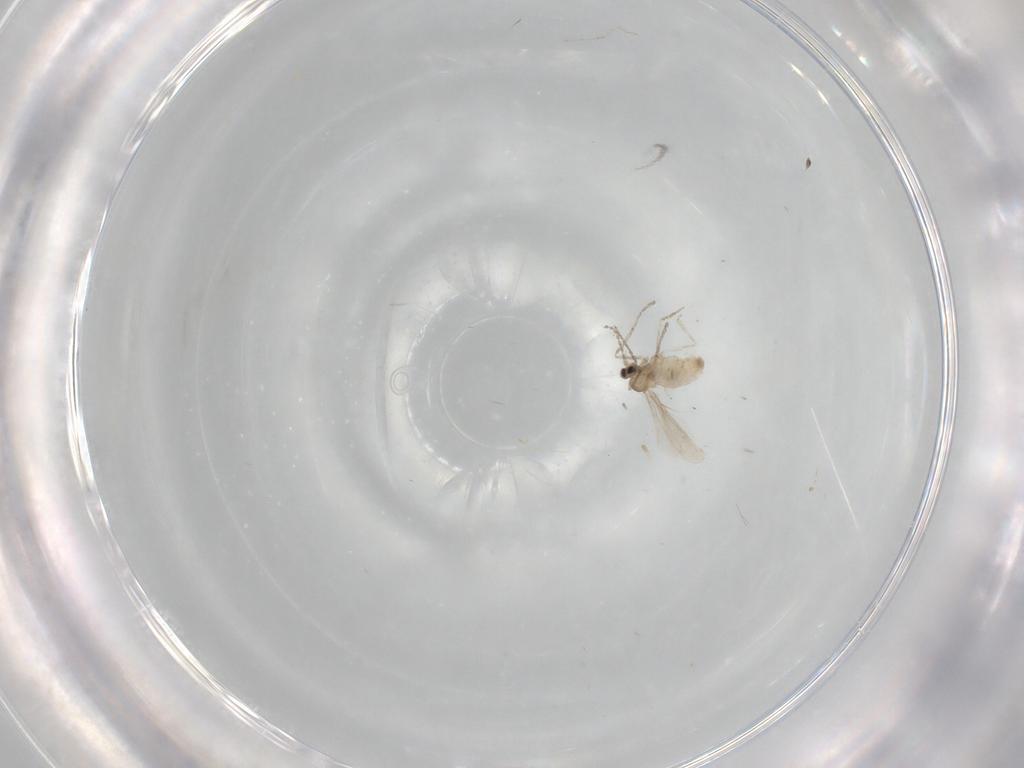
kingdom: Animalia
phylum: Arthropoda
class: Insecta
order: Diptera
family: Cecidomyiidae
